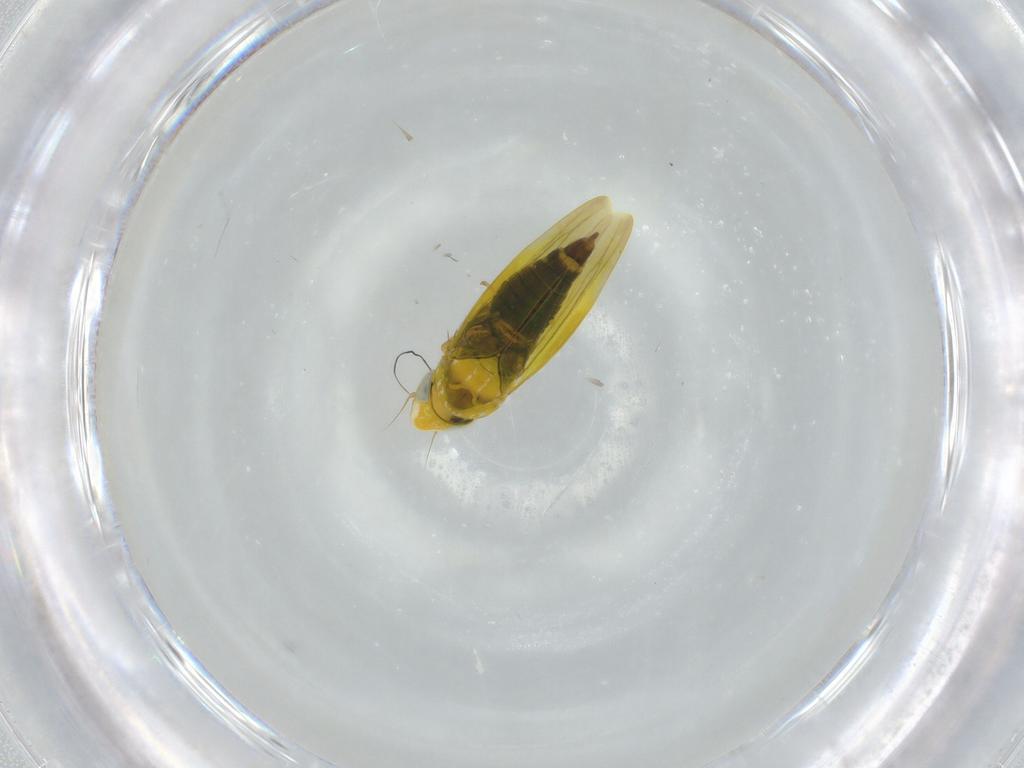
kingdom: Animalia
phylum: Arthropoda
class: Insecta
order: Hemiptera
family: Cicadellidae
